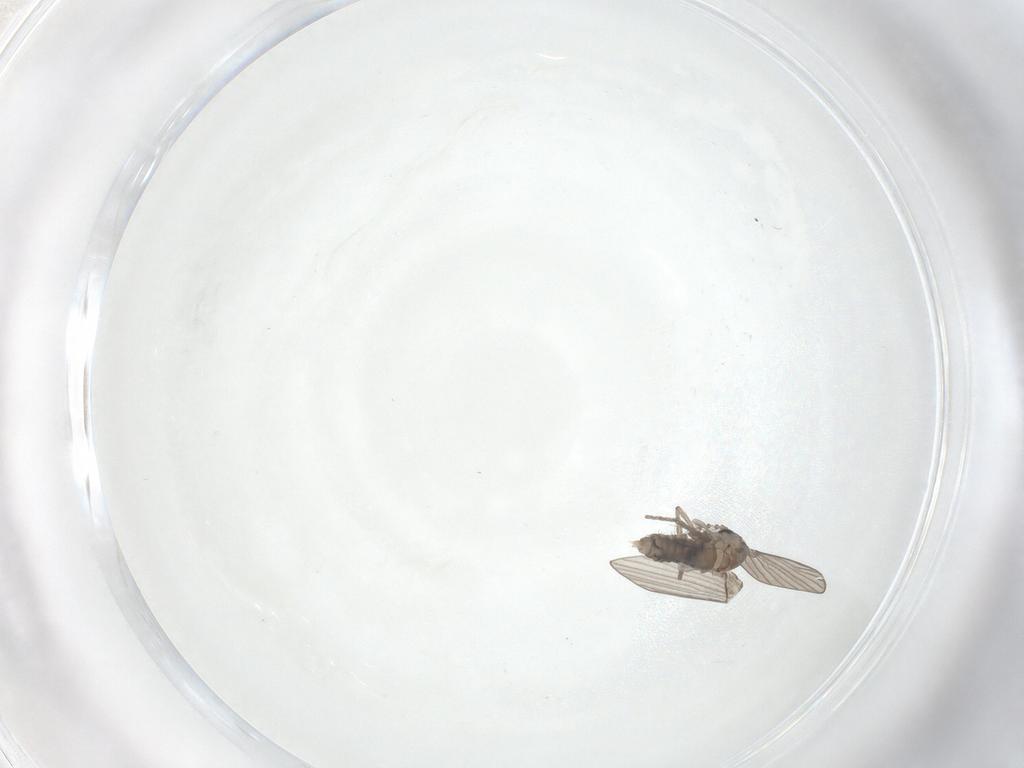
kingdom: Animalia
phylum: Arthropoda
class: Insecta
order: Diptera
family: Psychodidae
